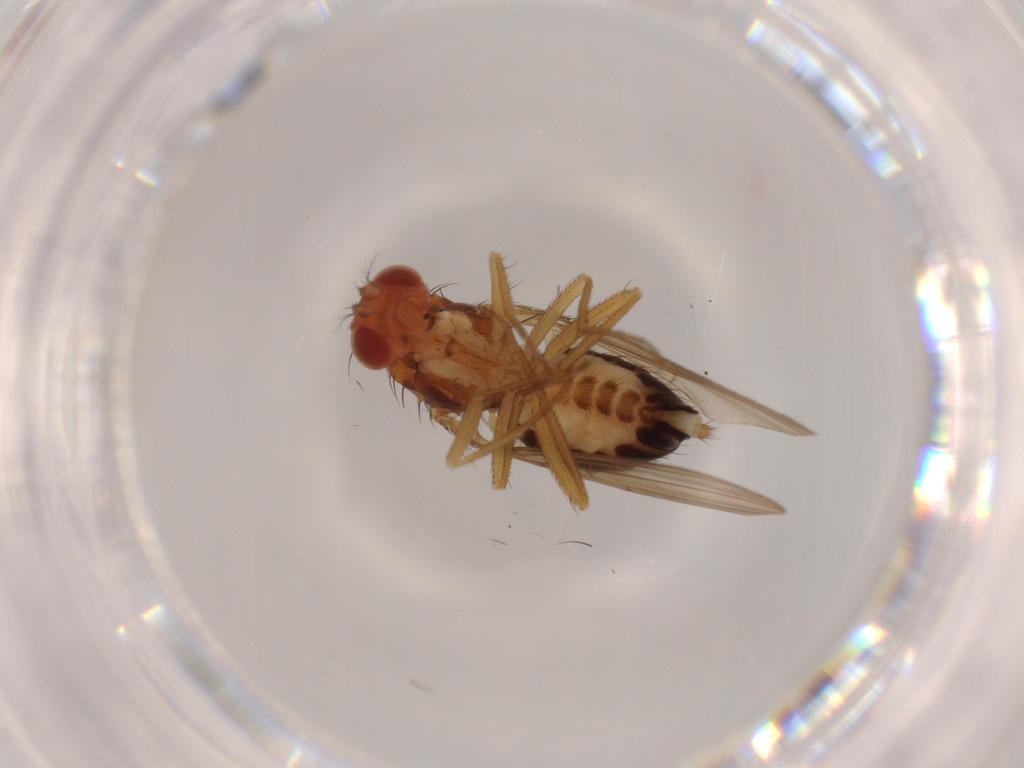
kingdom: Animalia
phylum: Arthropoda
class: Insecta
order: Diptera
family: Drosophilidae
